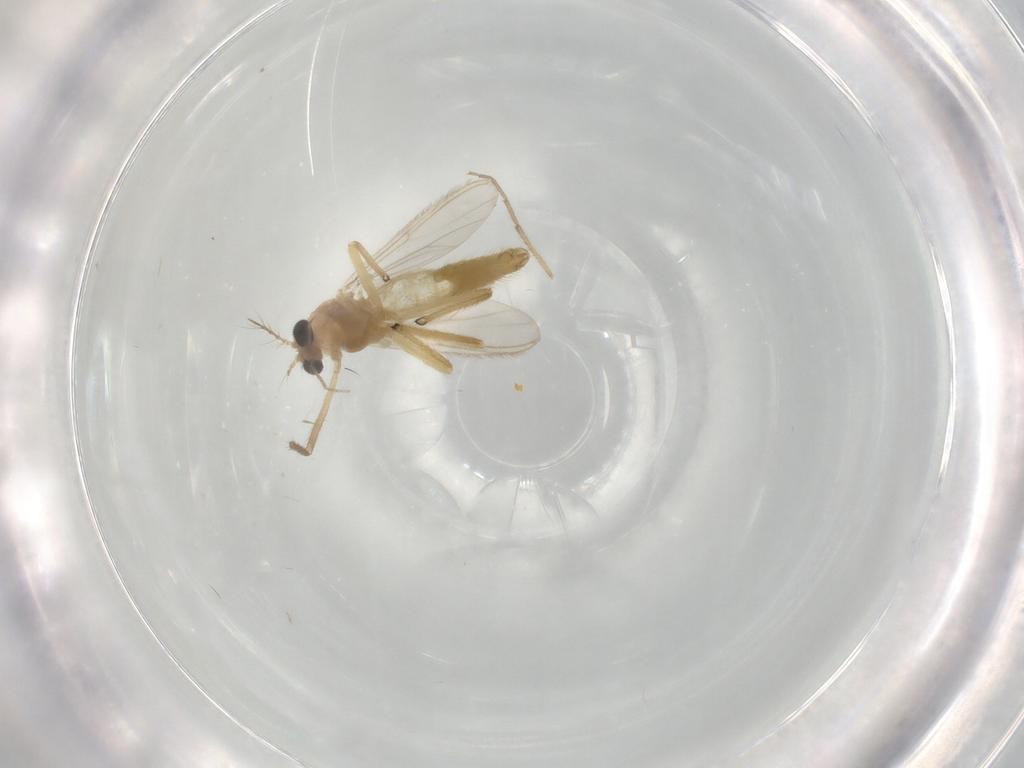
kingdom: Animalia
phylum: Arthropoda
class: Insecta
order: Diptera
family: Chironomidae
